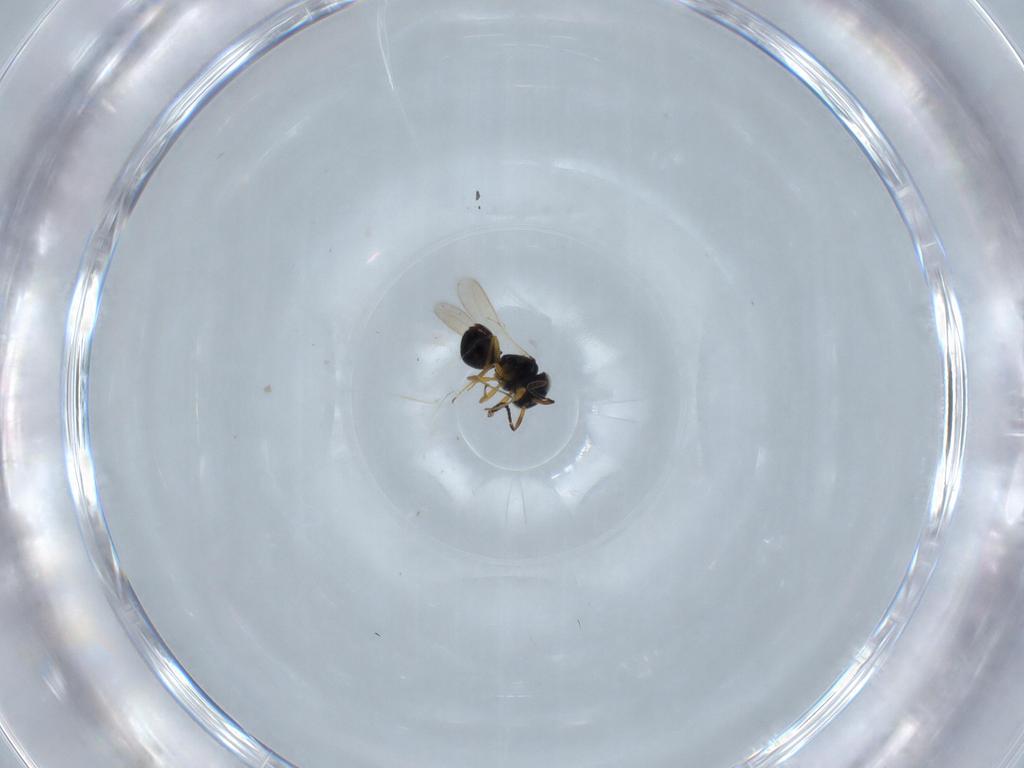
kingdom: Animalia
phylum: Arthropoda
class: Insecta
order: Hymenoptera
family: Scelionidae
